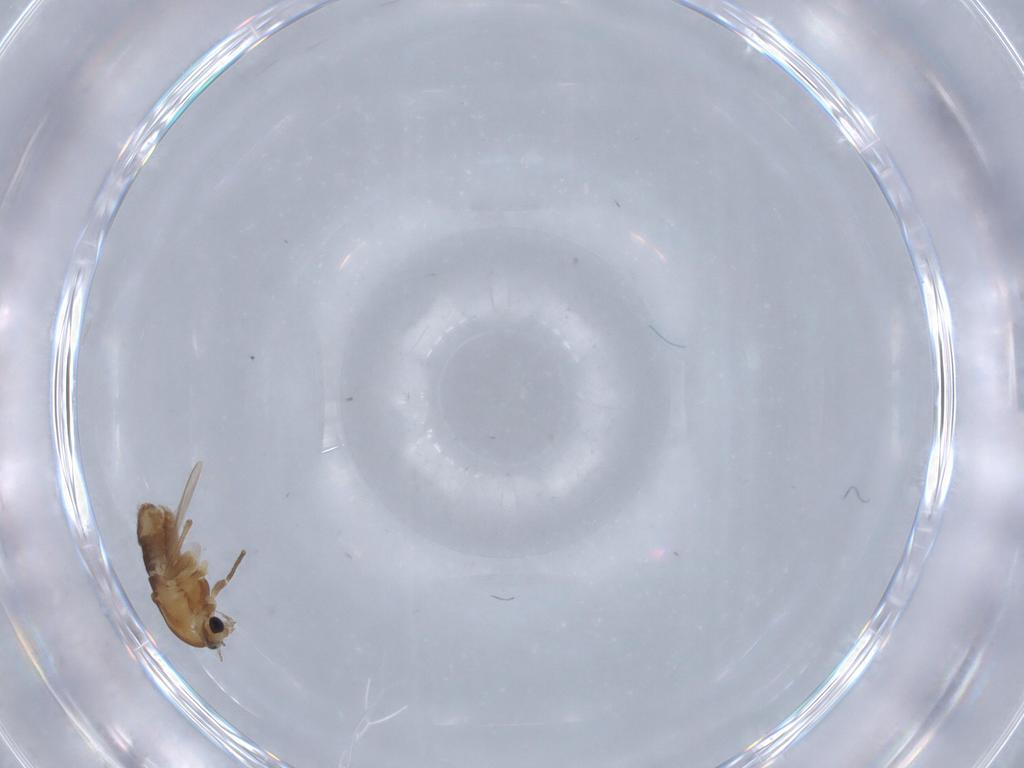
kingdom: Animalia
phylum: Arthropoda
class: Insecta
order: Diptera
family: Chironomidae
